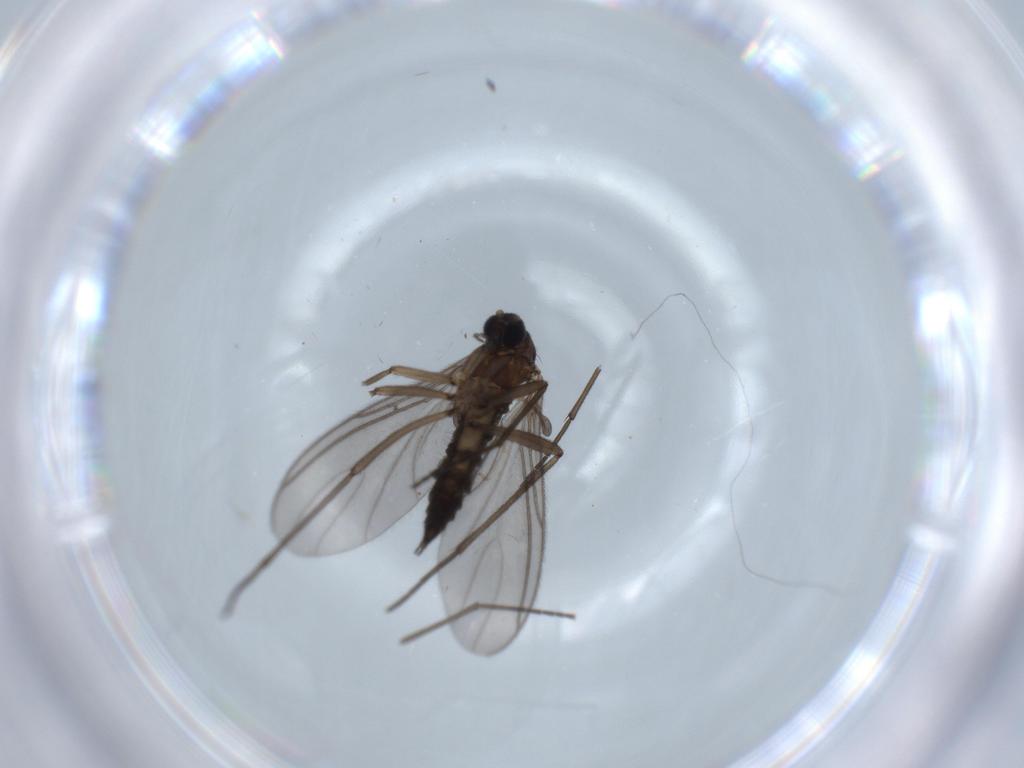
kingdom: Animalia
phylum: Arthropoda
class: Insecta
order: Diptera
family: Sciaridae
